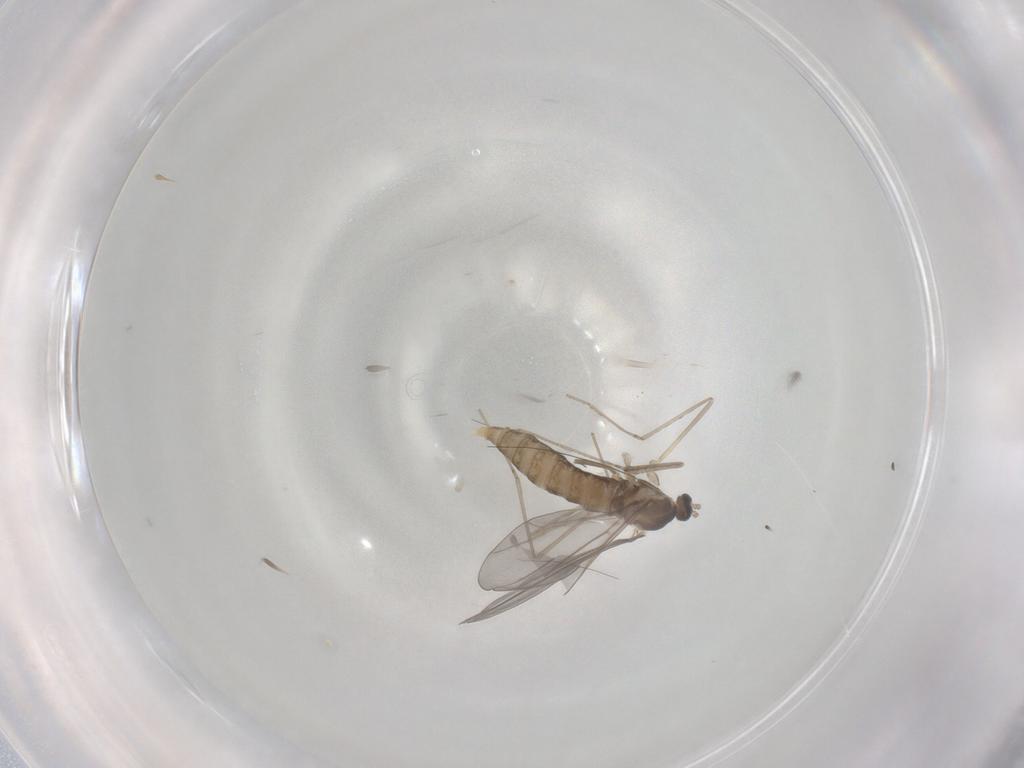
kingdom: Animalia
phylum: Arthropoda
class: Insecta
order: Diptera
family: Cecidomyiidae
